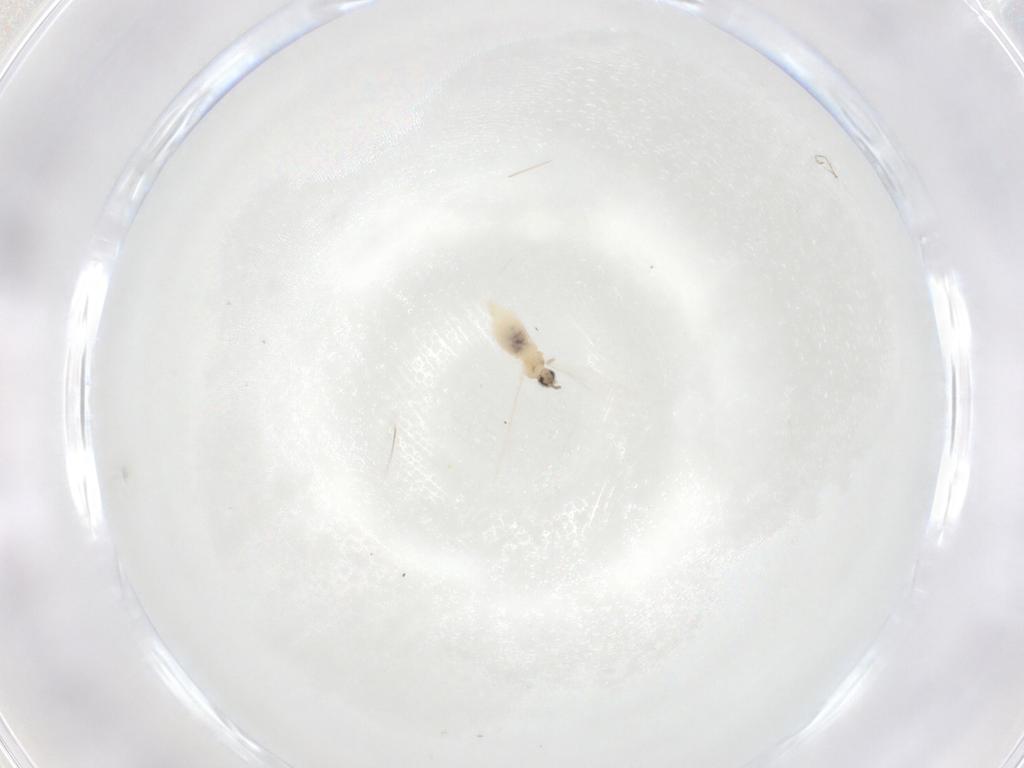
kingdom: Animalia
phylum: Arthropoda
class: Insecta
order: Diptera
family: Cecidomyiidae
